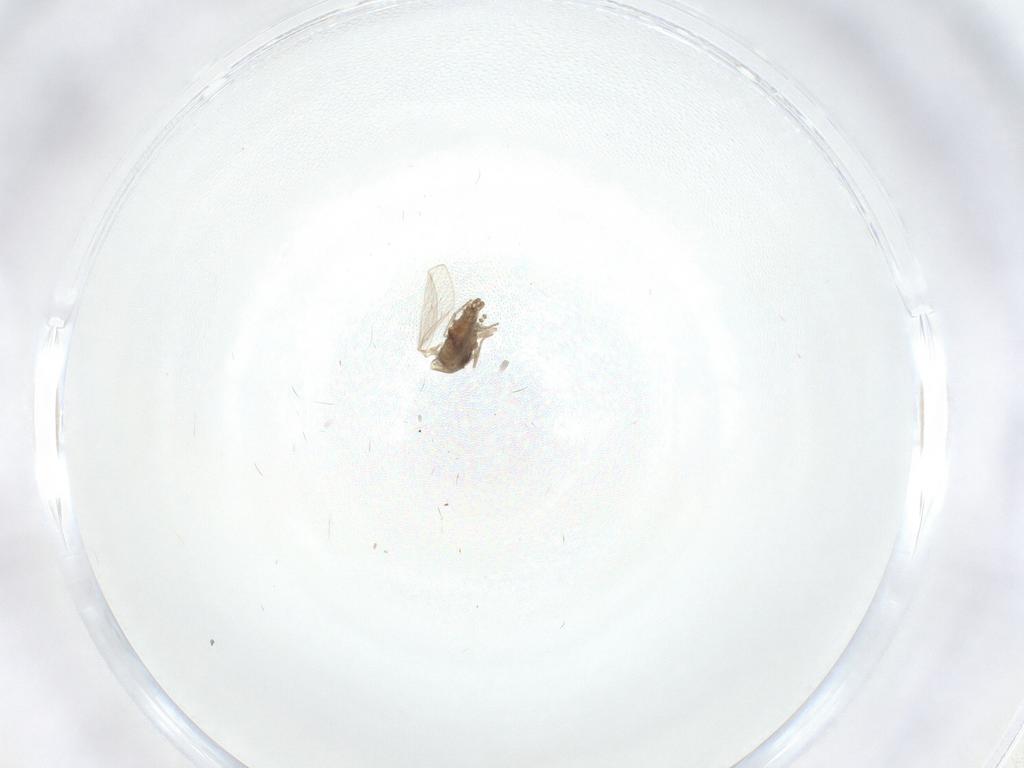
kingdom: Animalia
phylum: Arthropoda
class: Insecta
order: Diptera
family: Psychodidae
